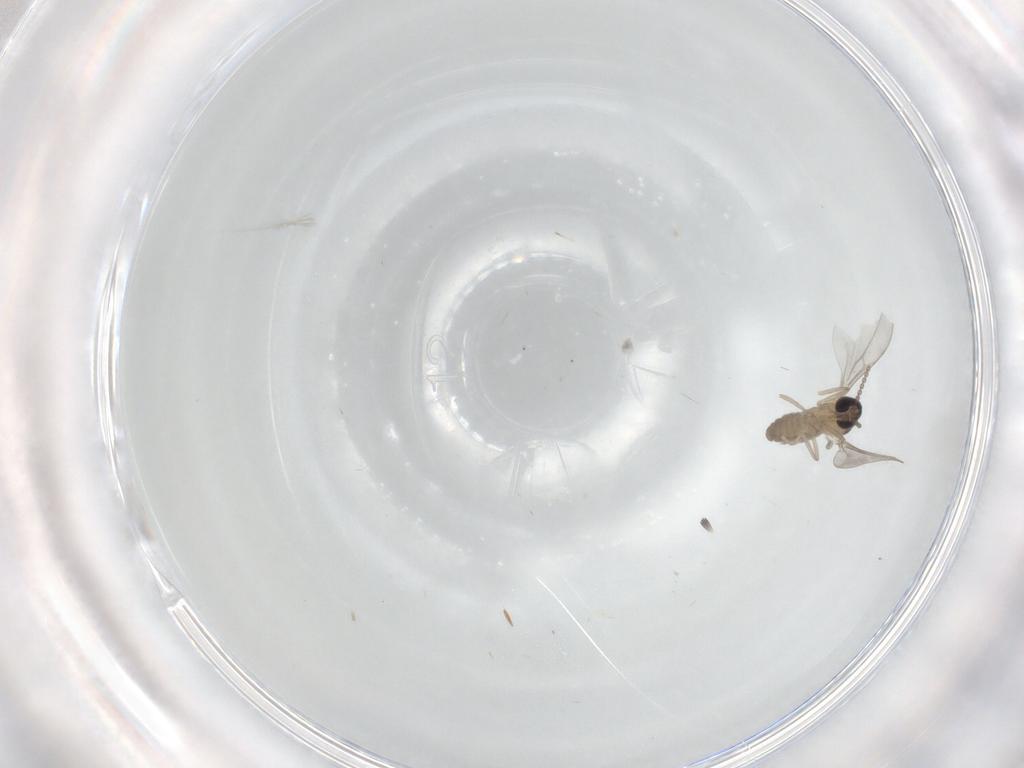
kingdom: Animalia
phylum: Arthropoda
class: Insecta
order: Diptera
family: Cecidomyiidae
